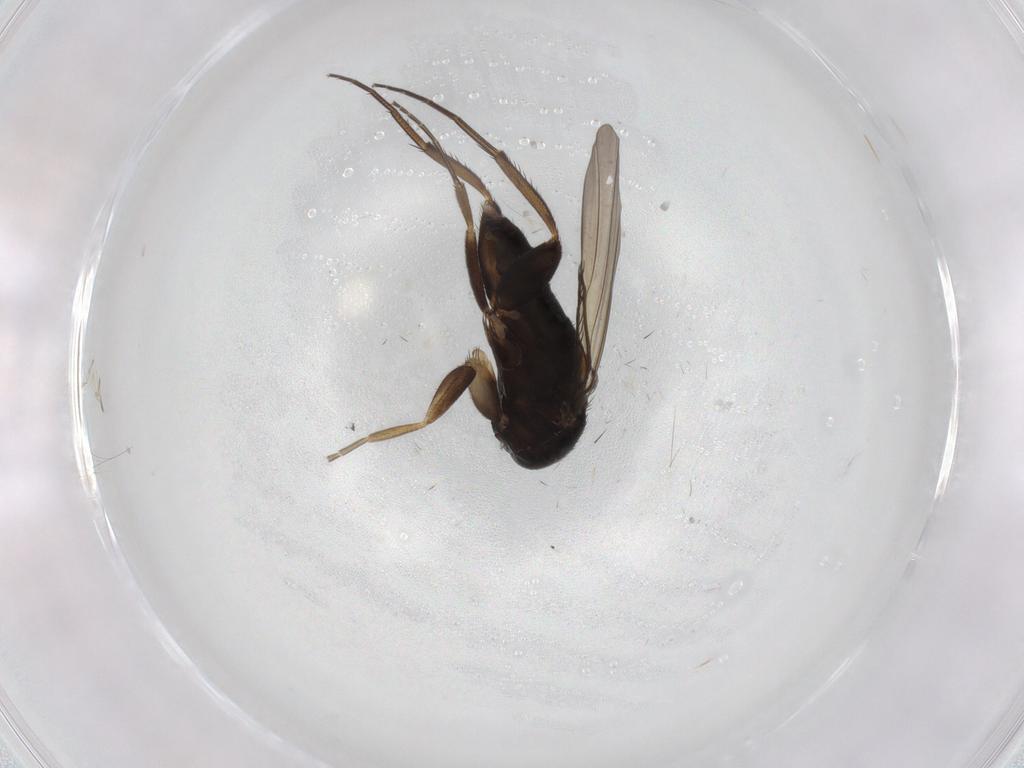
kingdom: Animalia
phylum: Arthropoda
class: Insecta
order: Diptera
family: Phoridae
